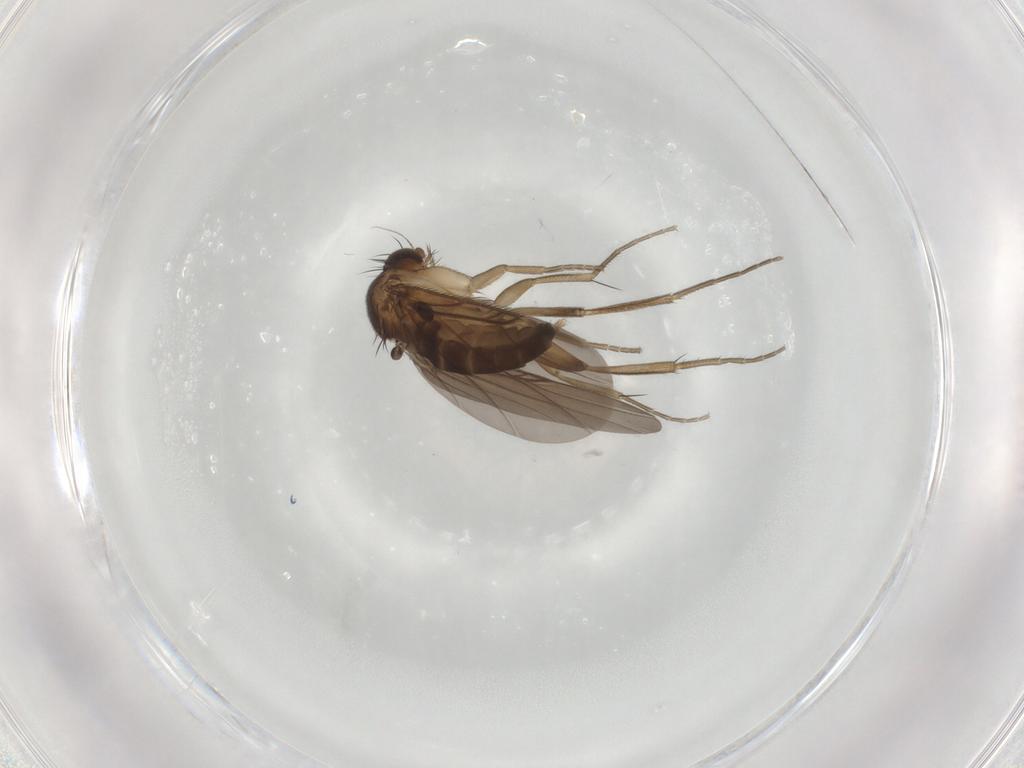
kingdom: Animalia
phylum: Arthropoda
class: Insecta
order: Diptera
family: Phoridae
